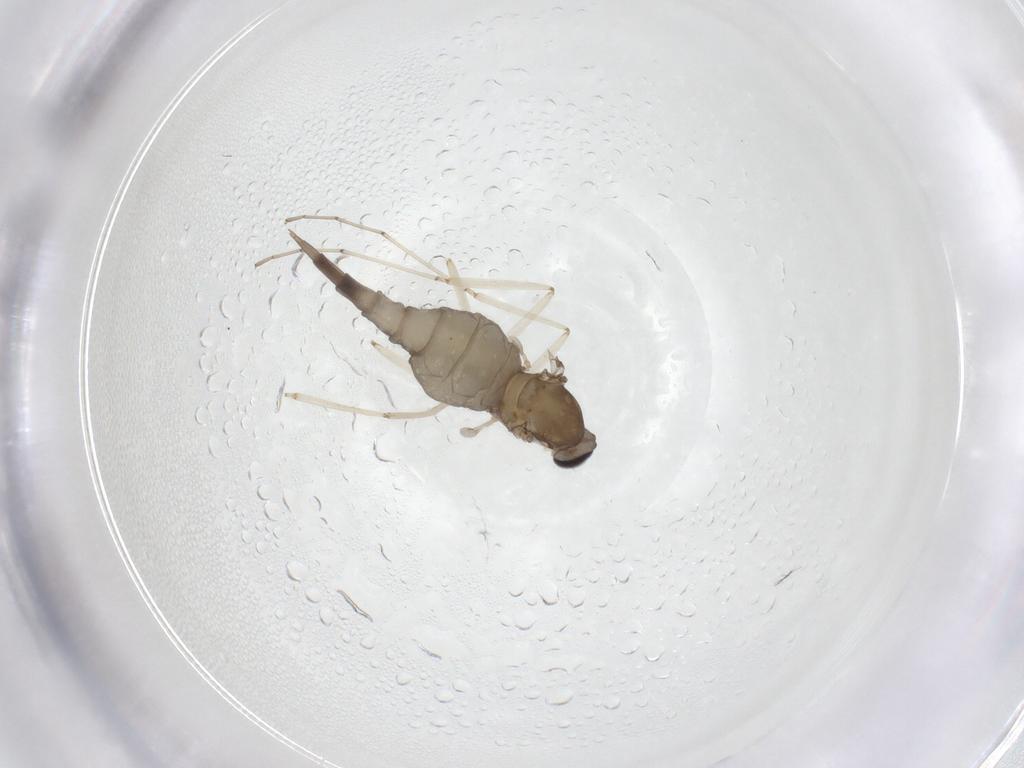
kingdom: Animalia
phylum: Arthropoda
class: Insecta
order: Diptera
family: Cecidomyiidae
